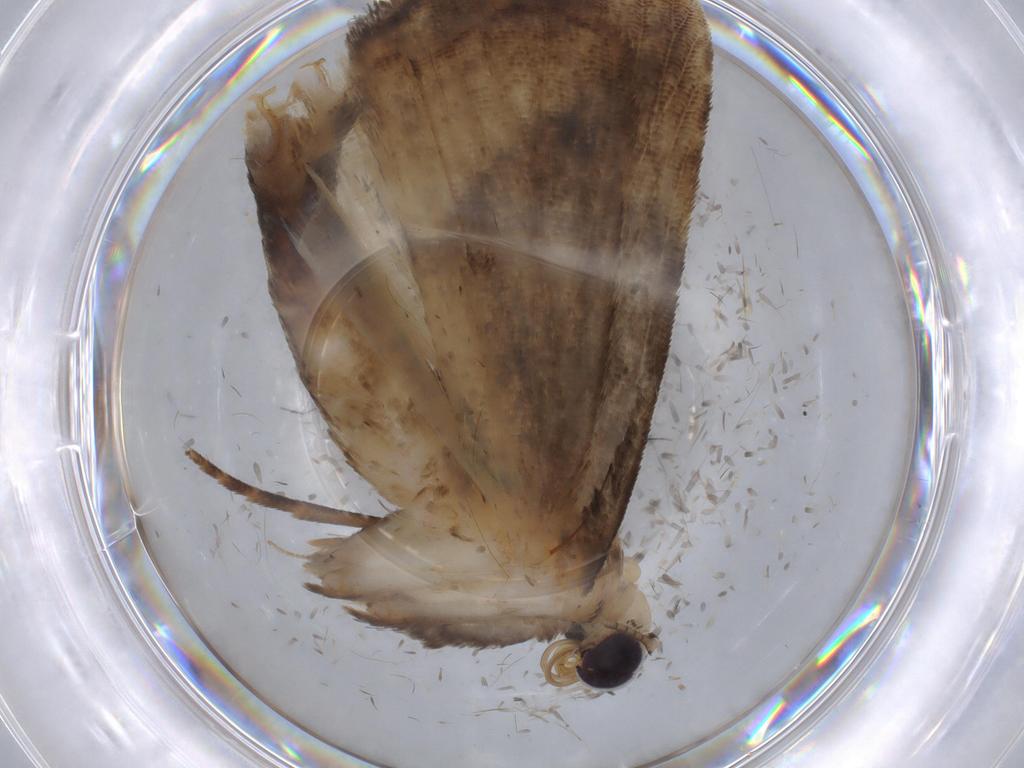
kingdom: Animalia
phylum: Arthropoda
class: Insecta
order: Lepidoptera
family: Noctuidae
